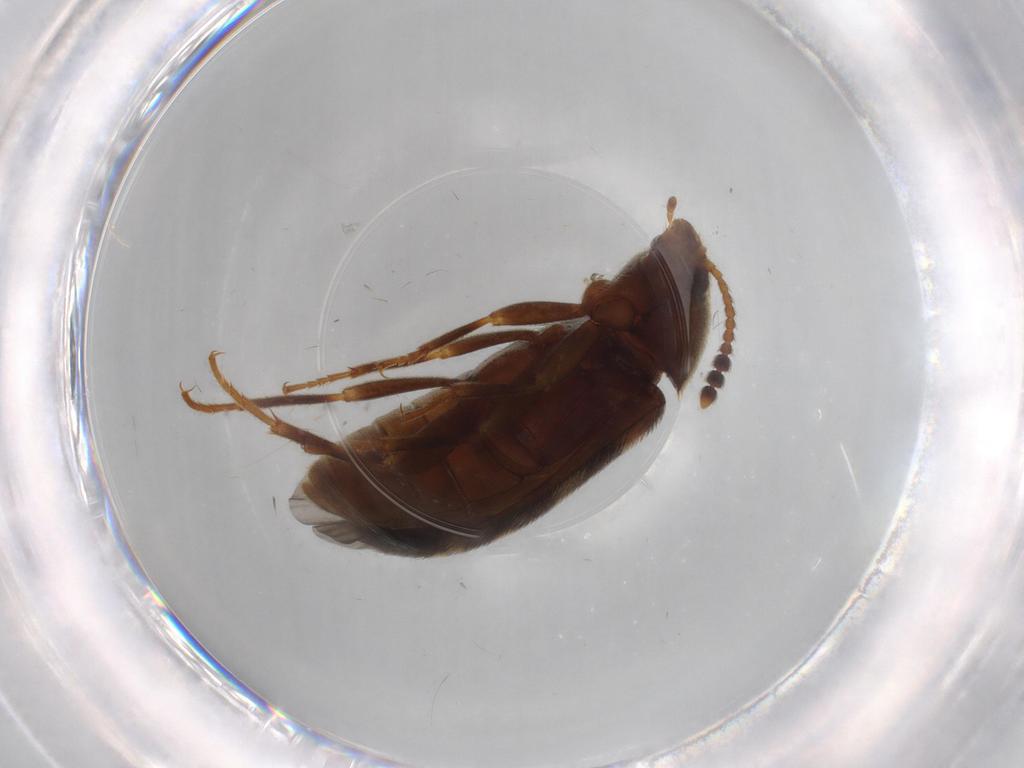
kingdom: Animalia
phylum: Arthropoda
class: Insecta
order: Coleoptera
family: Mycetophagidae
